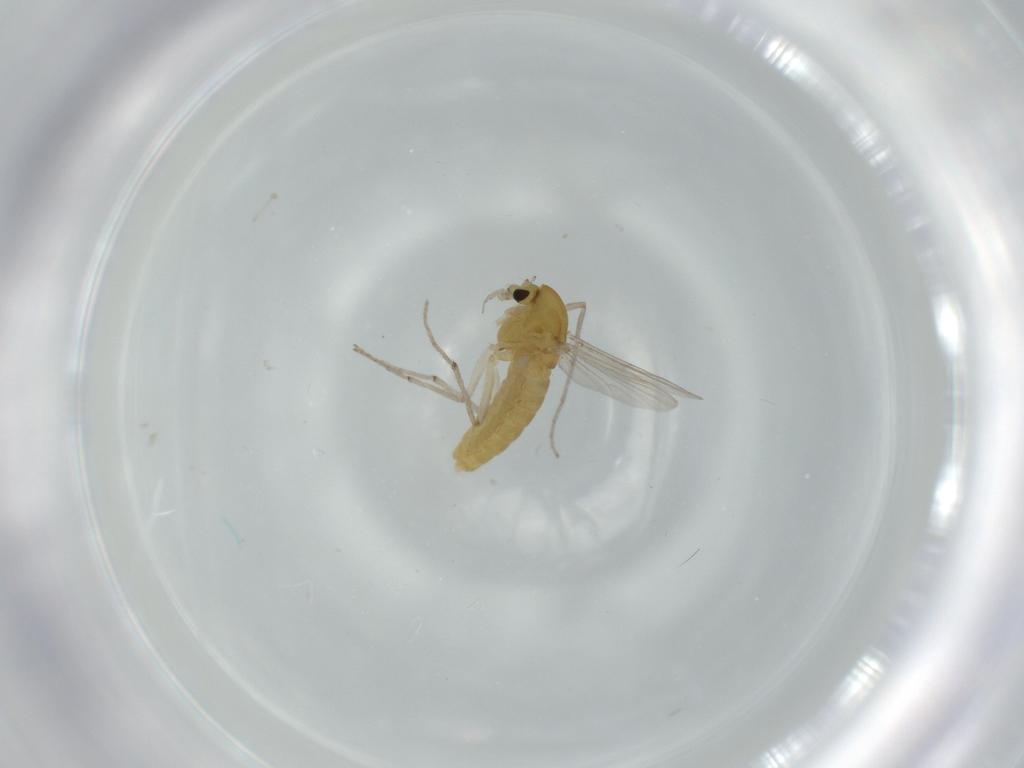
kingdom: Animalia
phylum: Arthropoda
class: Insecta
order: Diptera
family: Chironomidae
